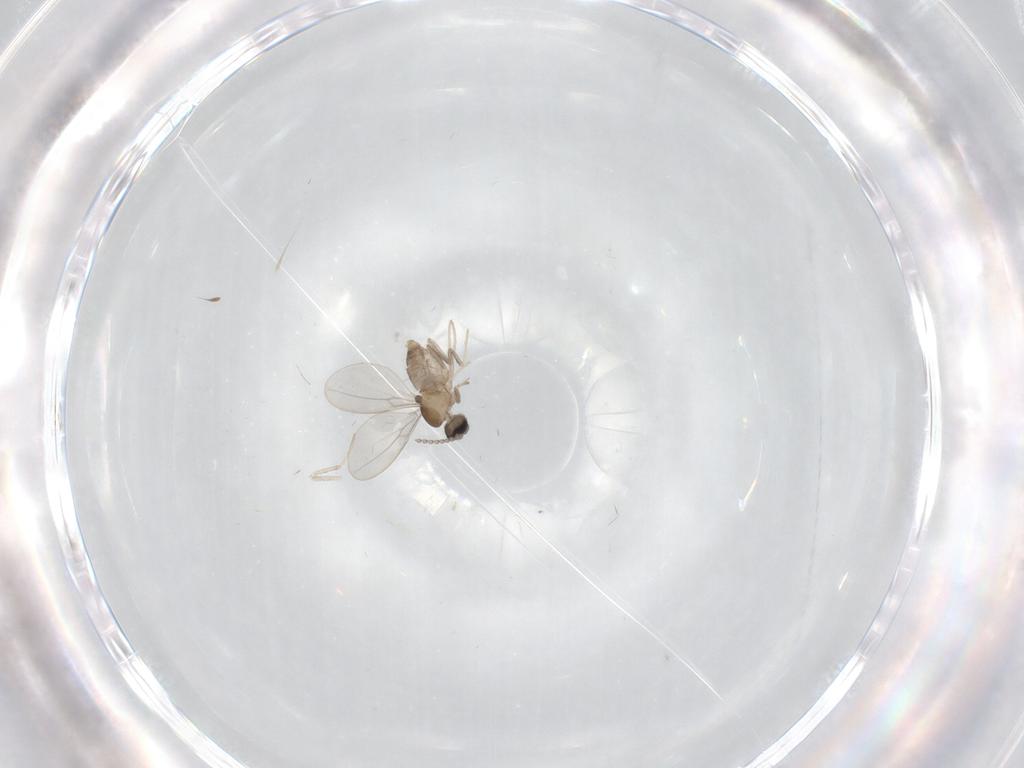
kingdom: Animalia
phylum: Arthropoda
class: Insecta
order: Diptera
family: Cecidomyiidae
